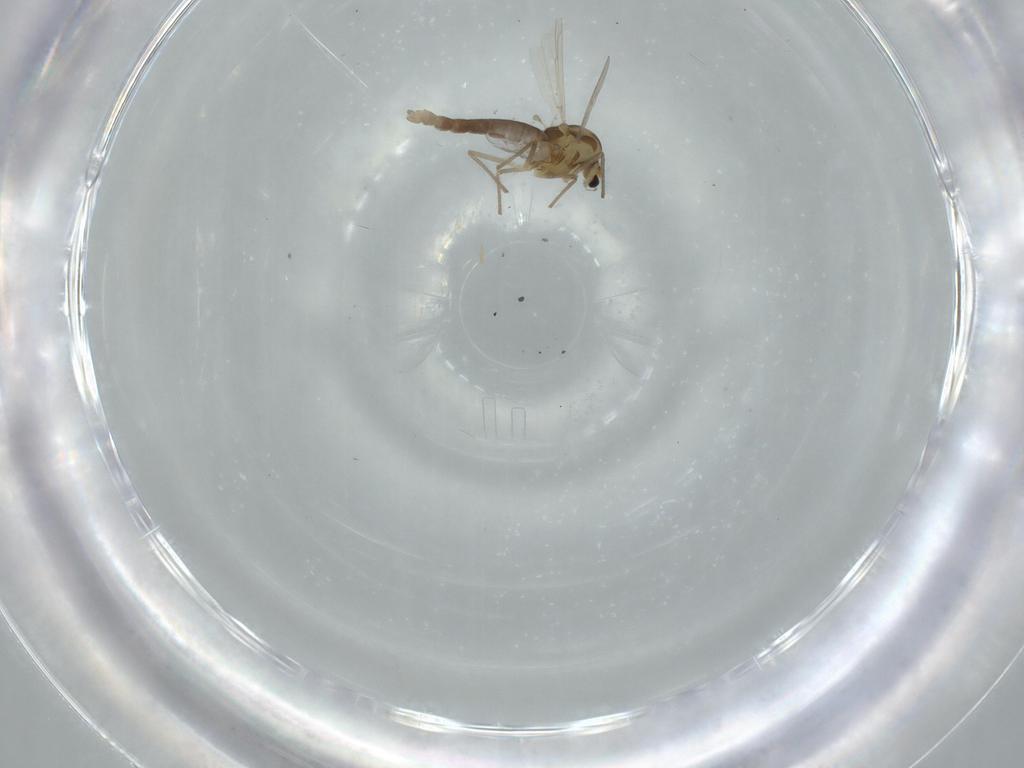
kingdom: Animalia
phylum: Arthropoda
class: Insecta
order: Diptera
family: Chironomidae
